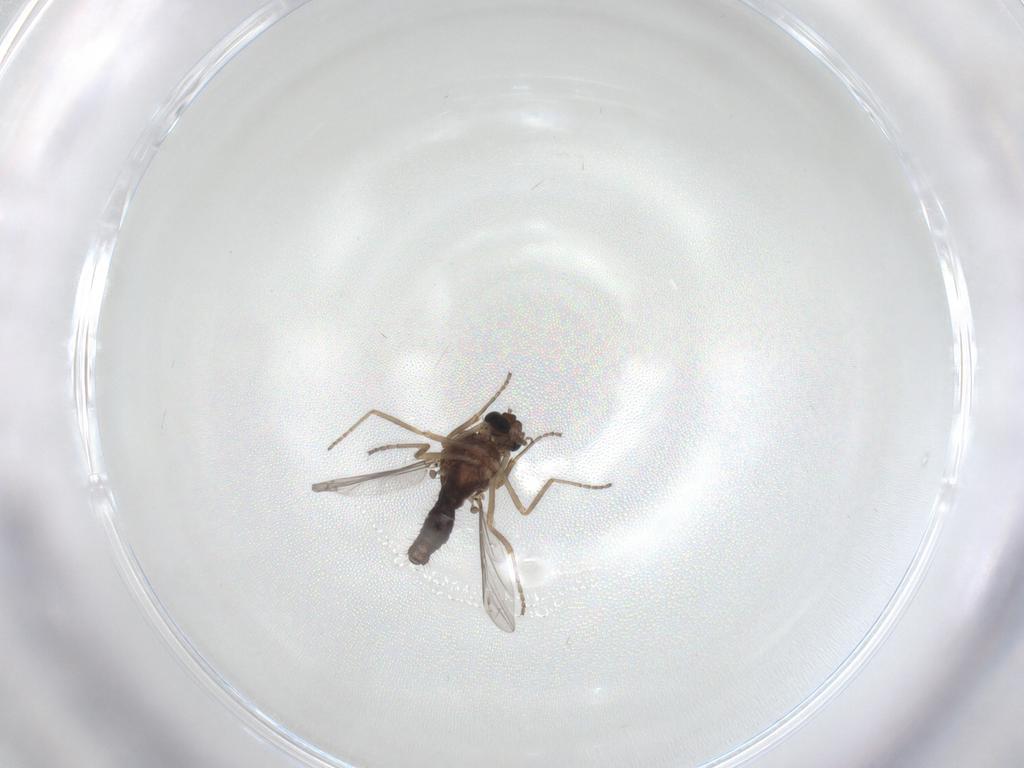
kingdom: Animalia
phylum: Arthropoda
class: Insecta
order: Diptera
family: Ceratopogonidae
